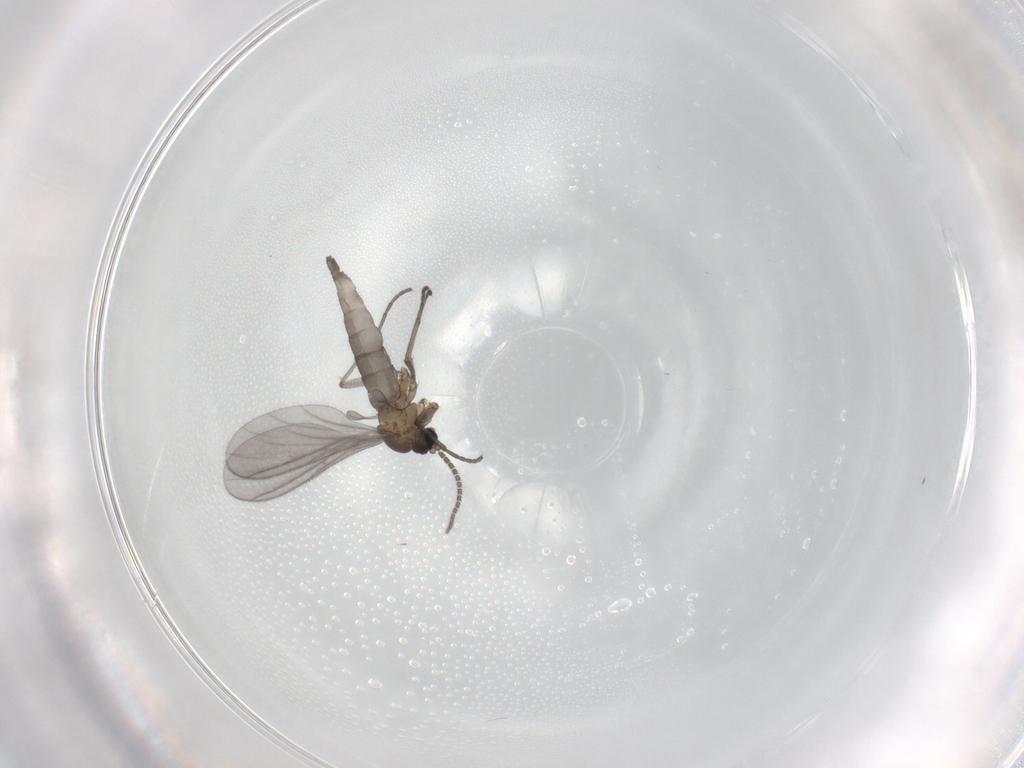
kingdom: Animalia
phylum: Arthropoda
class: Insecta
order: Diptera
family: Sciaridae
